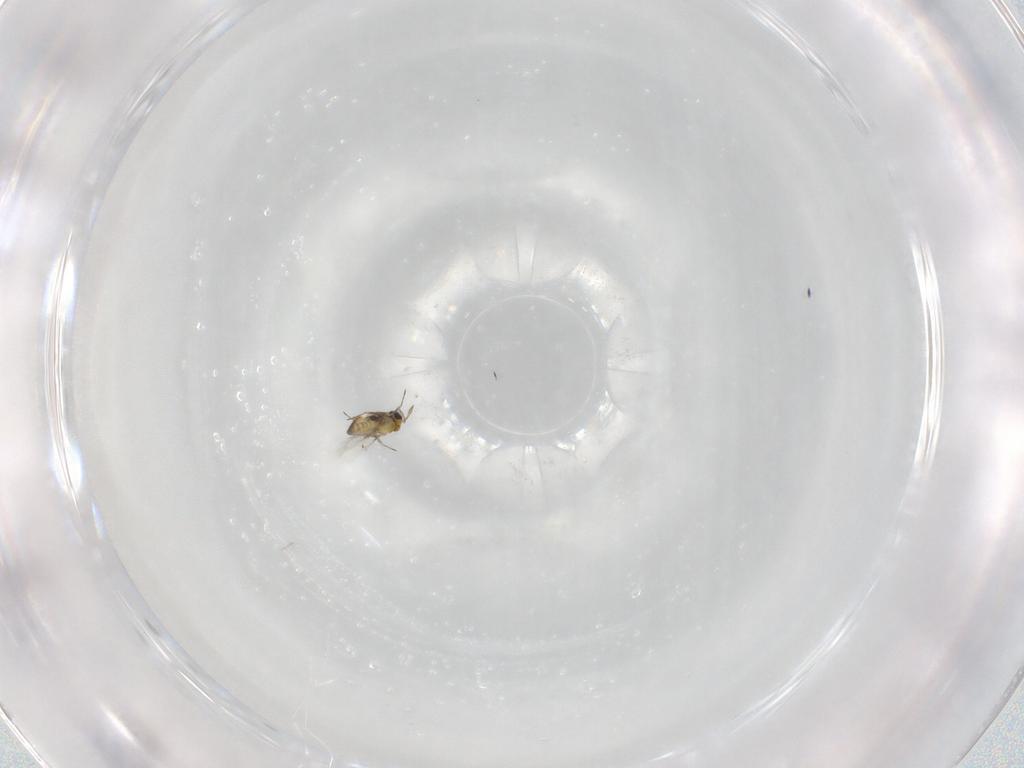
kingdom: Animalia
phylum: Arthropoda
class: Insecta
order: Hymenoptera
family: Trichogrammatidae
